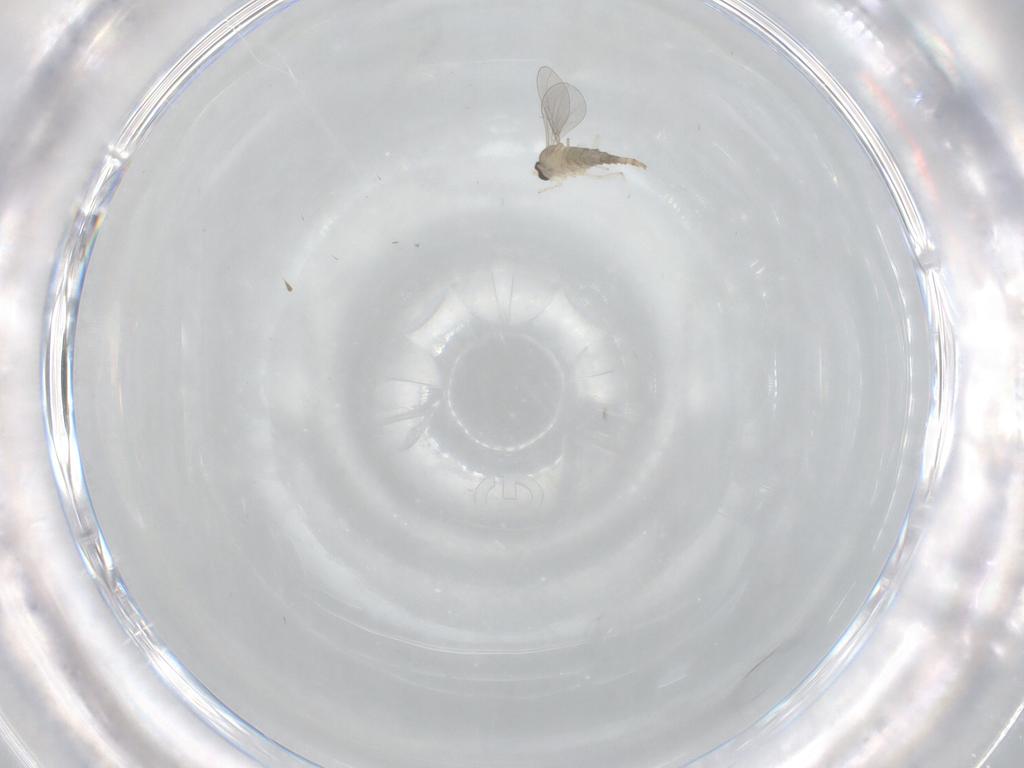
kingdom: Animalia
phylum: Arthropoda
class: Insecta
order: Diptera
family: Cecidomyiidae
